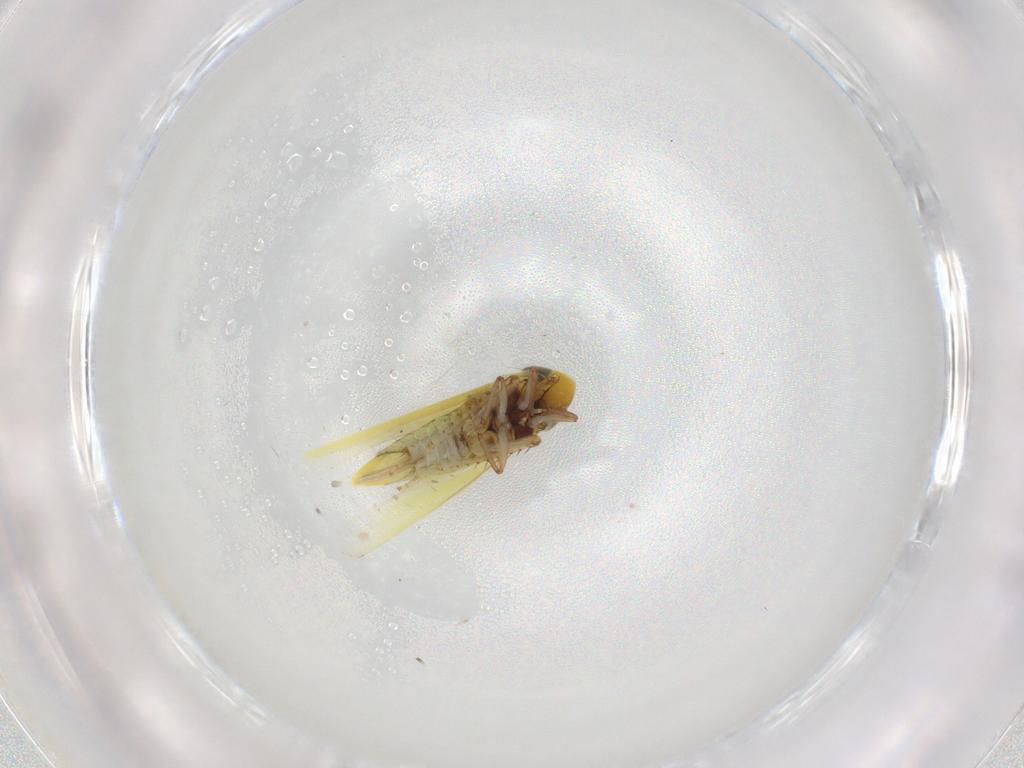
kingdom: Animalia
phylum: Arthropoda
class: Insecta
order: Hemiptera
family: Cicadellidae
